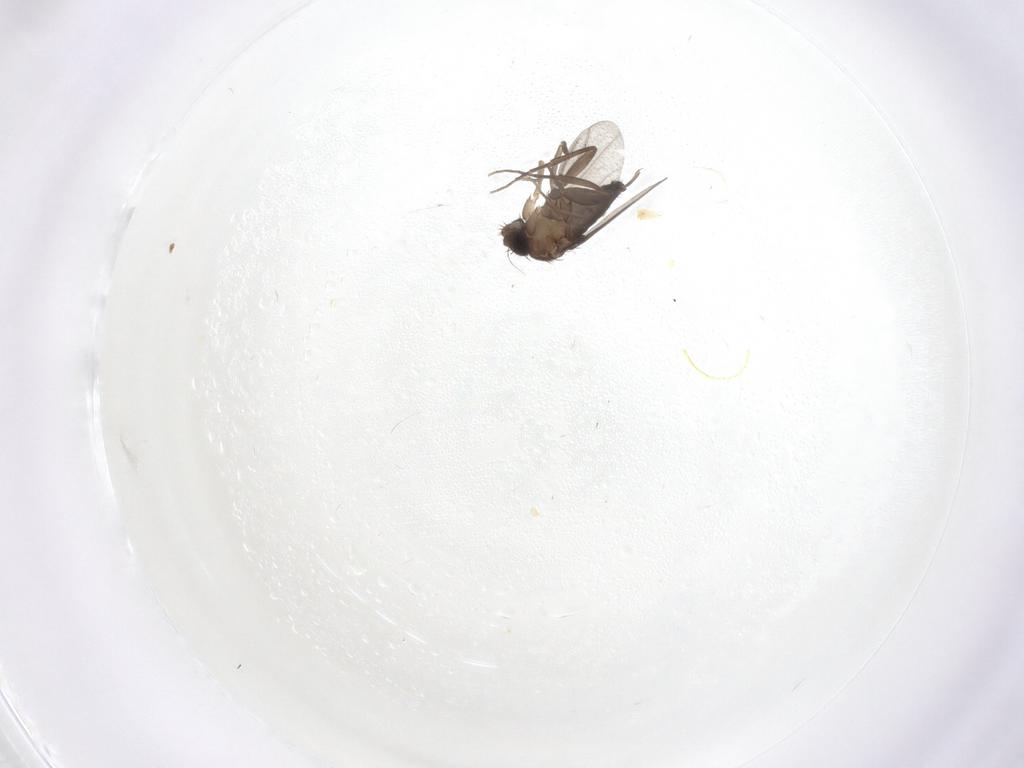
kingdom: Animalia
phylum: Arthropoda
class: Insecta
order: Diptera
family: Phoridae
